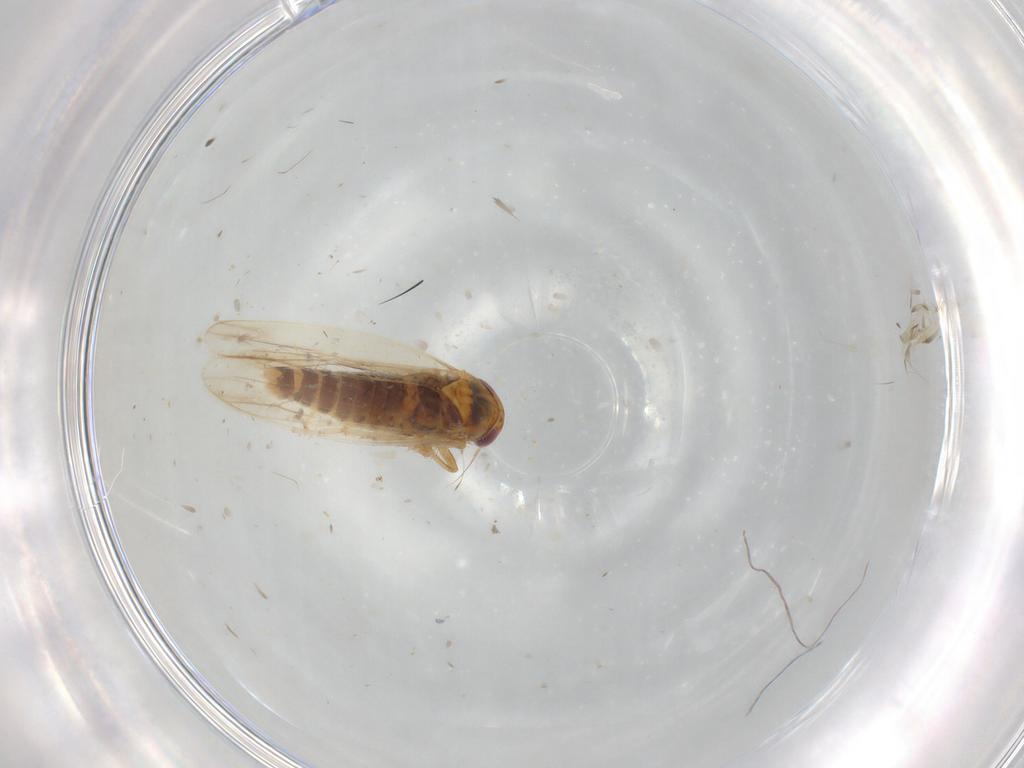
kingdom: Animalia
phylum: Arthropoda
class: Insecta
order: Hemiptera
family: Cicadellidae
